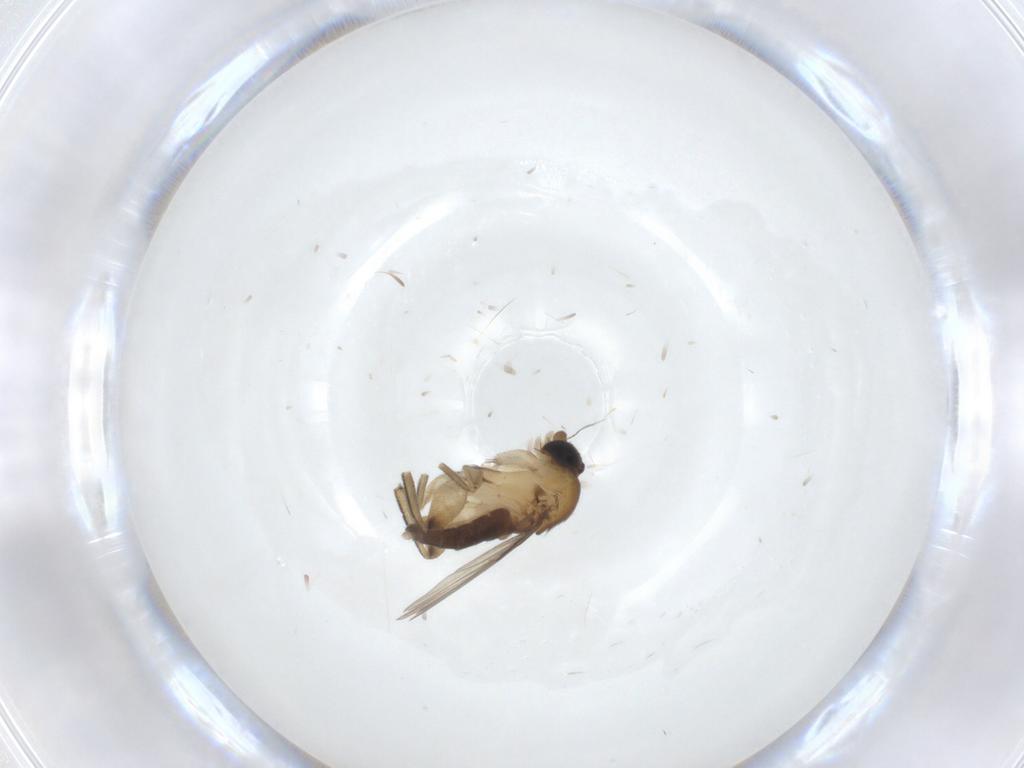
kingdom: Animalia
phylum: Arthropoda
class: Insecta
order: Diptera
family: Phoridae
